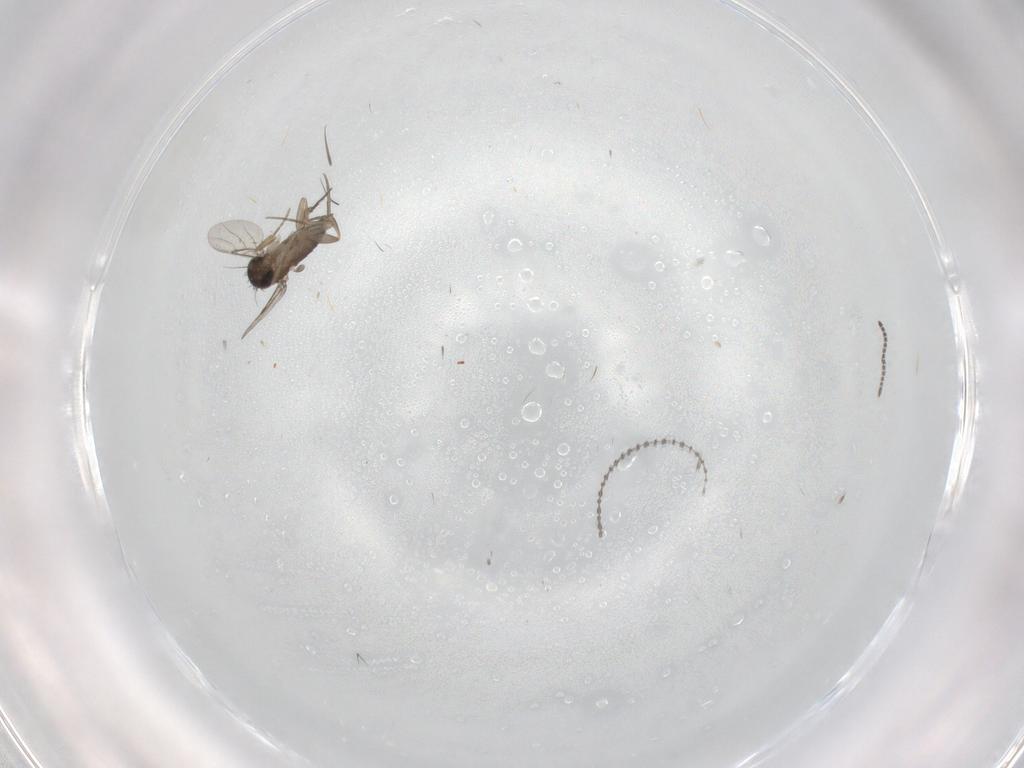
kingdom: Animalia
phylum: Arthropoda
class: Insecta
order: Diptera
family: Phoridae
